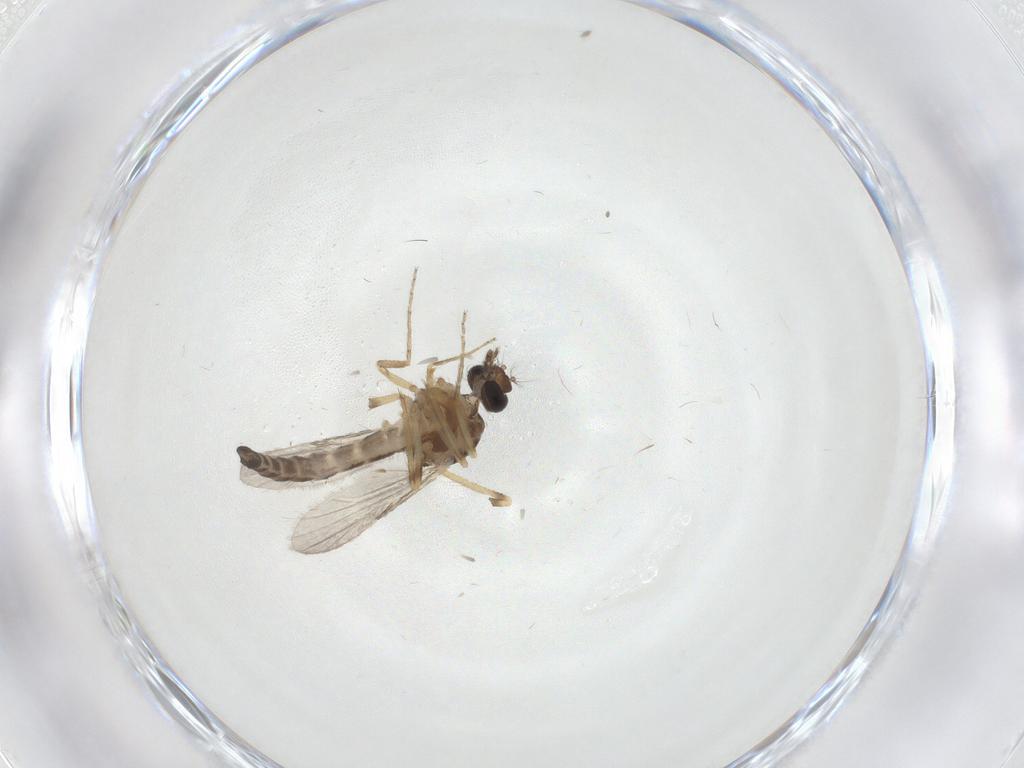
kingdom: Animalia
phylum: Arthropoda
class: Insecta
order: Diptera
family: Ceratopogonidae
